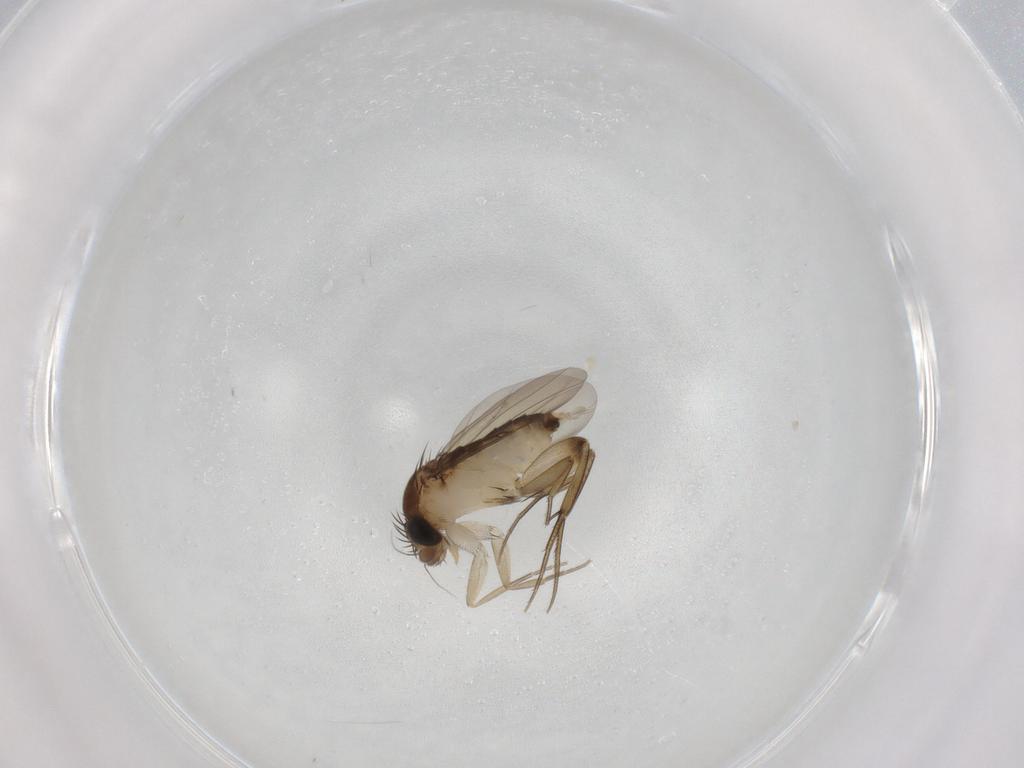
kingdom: Animalia
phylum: Arthropoda
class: Insecta
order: Diptera
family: Phoridae
